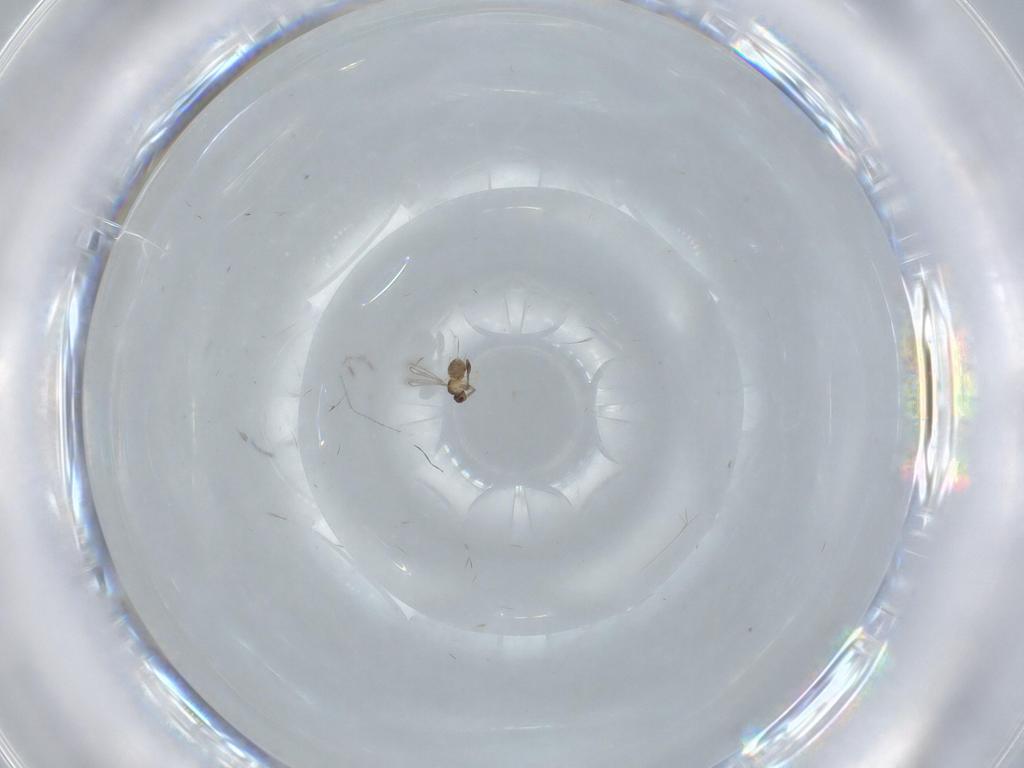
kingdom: Animalia
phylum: Arthropoda
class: Insecta
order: Hymenoptera
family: Mymaridae
